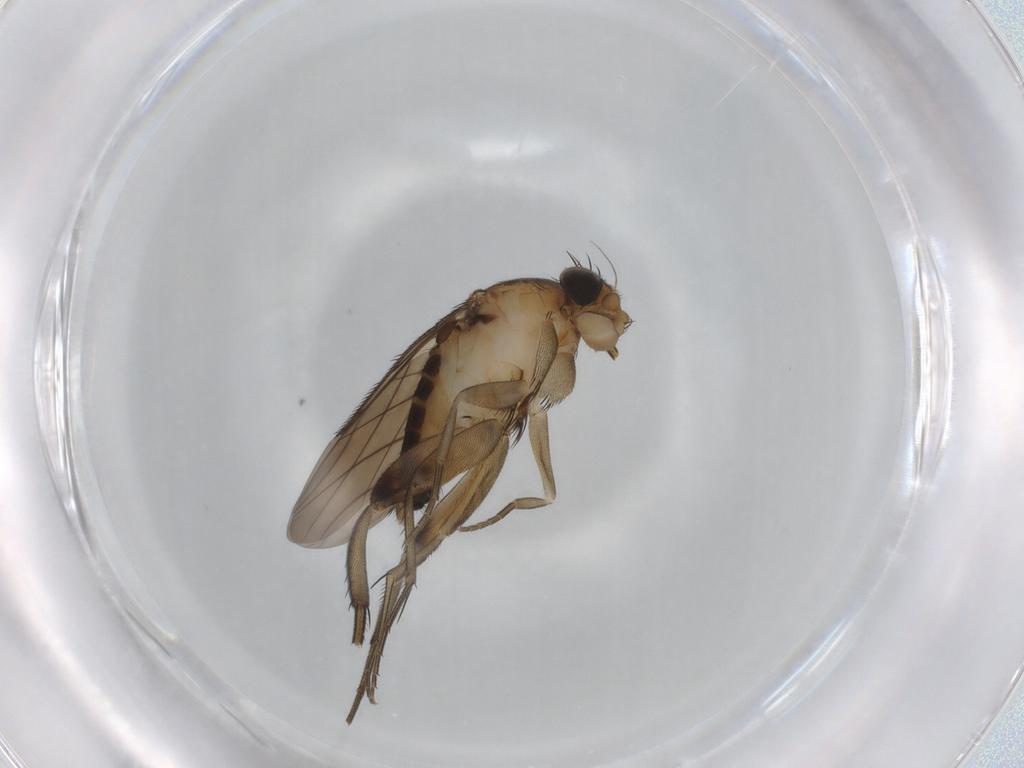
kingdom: Animalia
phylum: Arthropoda
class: Insecta
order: Diptera
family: Phoridae
